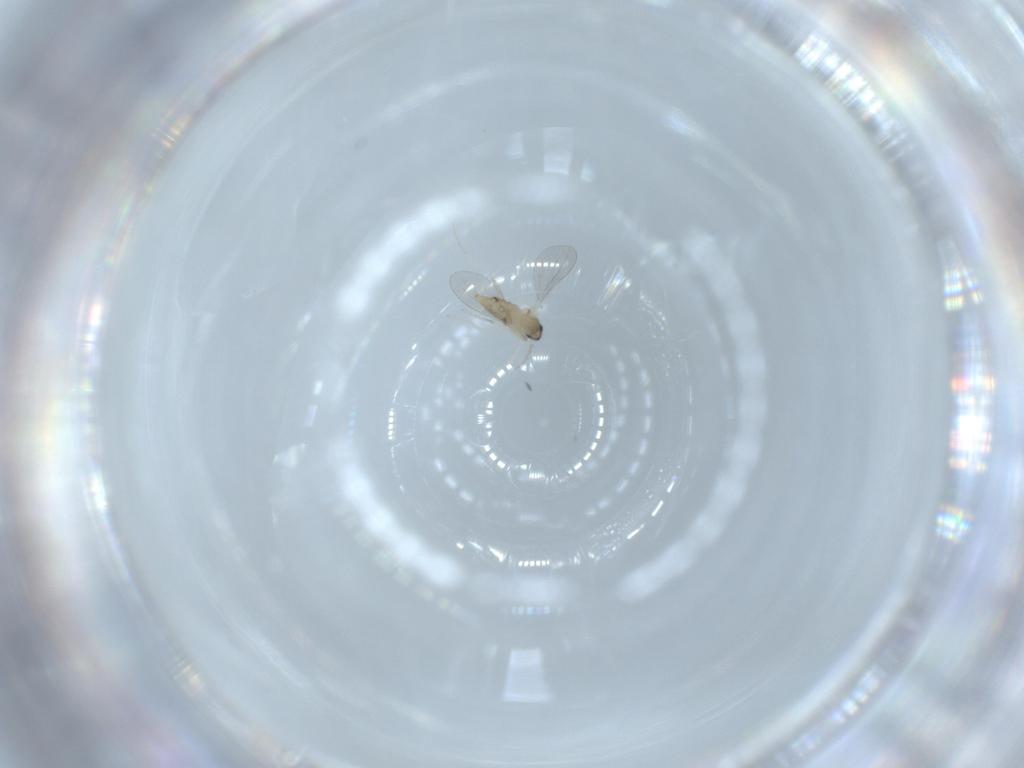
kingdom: Animalia
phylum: Arthropoda
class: Insecta
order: Diptera
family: Cecidomyiidae
